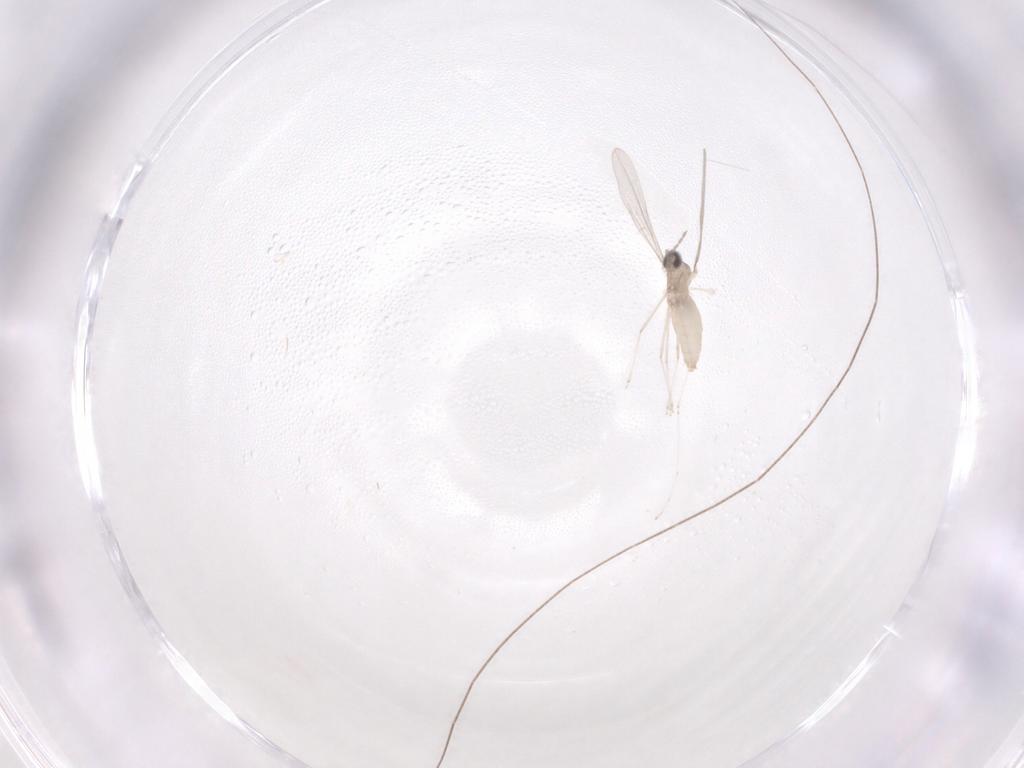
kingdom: Animalia
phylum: Arthropoda
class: Insecta
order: Diptera
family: Cecidomyiidae
